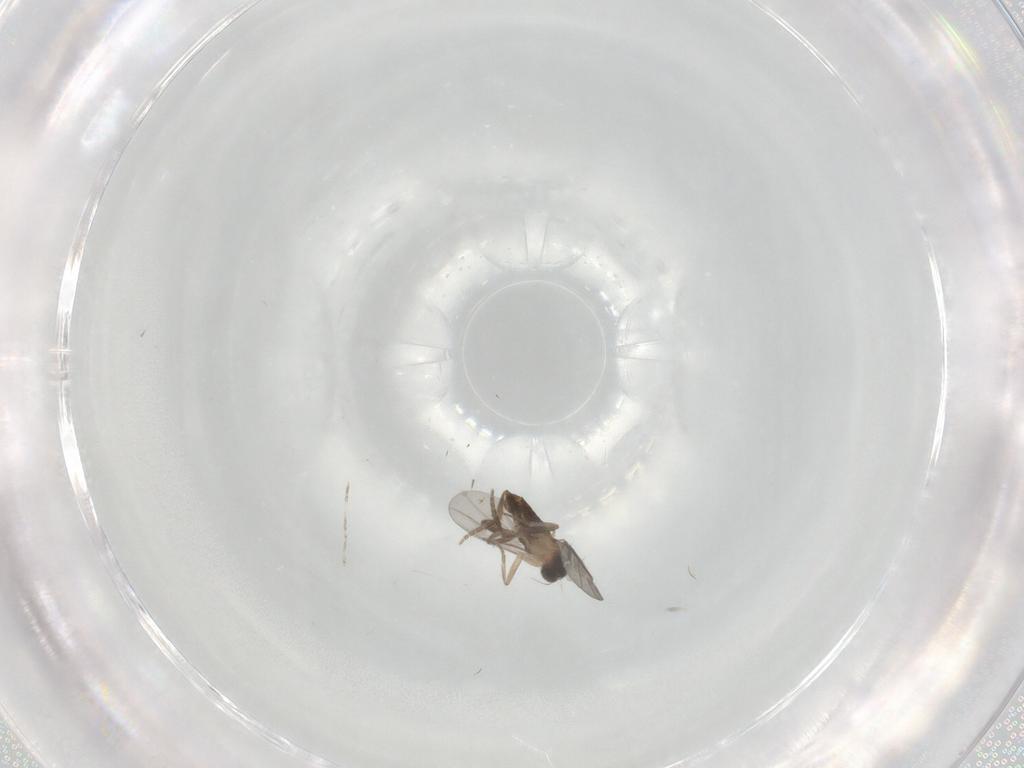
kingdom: Animalia
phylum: Arthropoda
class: Insecta
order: Diptera
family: Mycetophilidae
